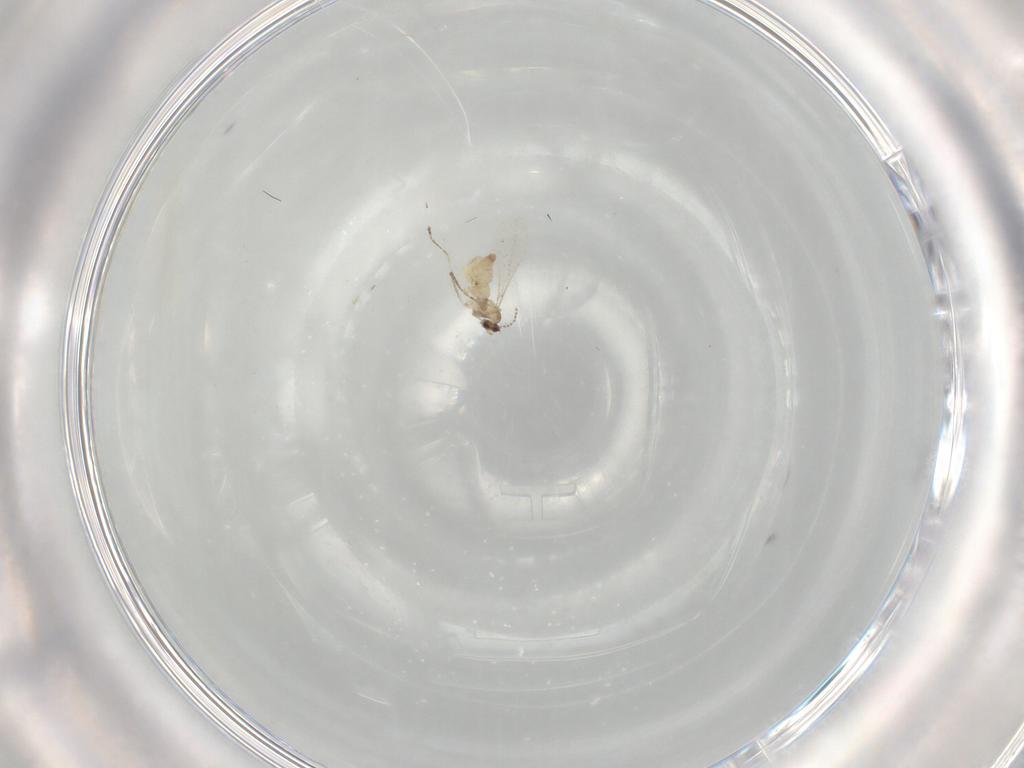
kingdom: Animalia
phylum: Arthropoda
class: Insecta
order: Diptera
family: Cecidomyiidae
